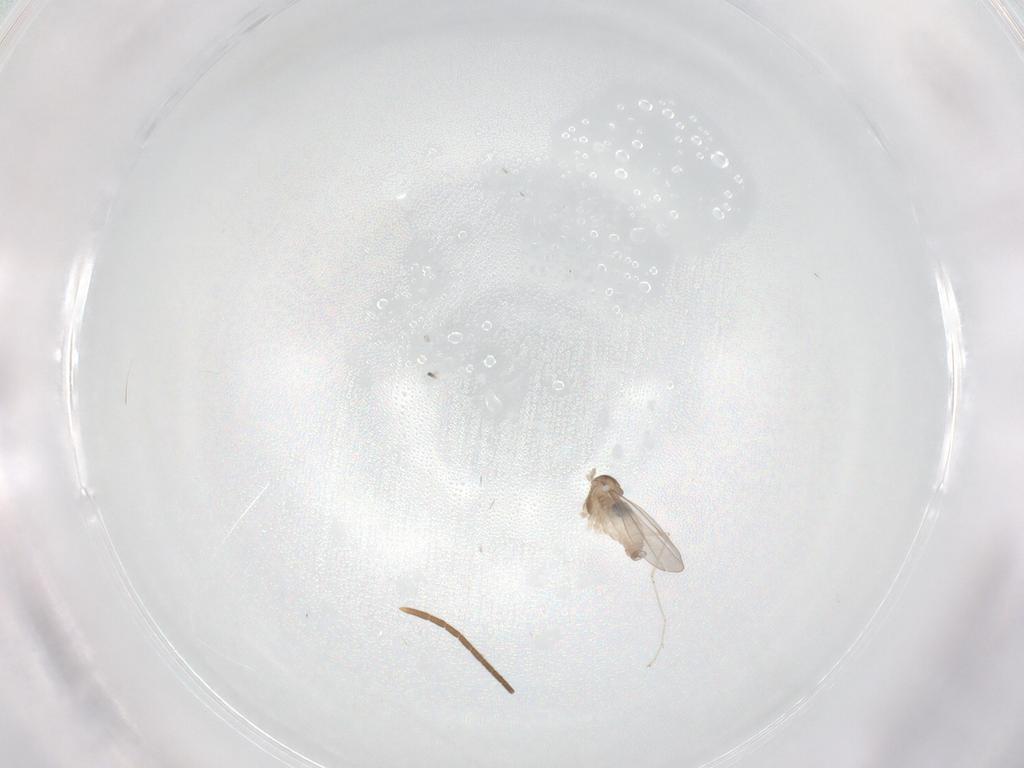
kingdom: Animalia
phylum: Arthropoda
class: Insecta
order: Diptera
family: Cecidomyiidae
